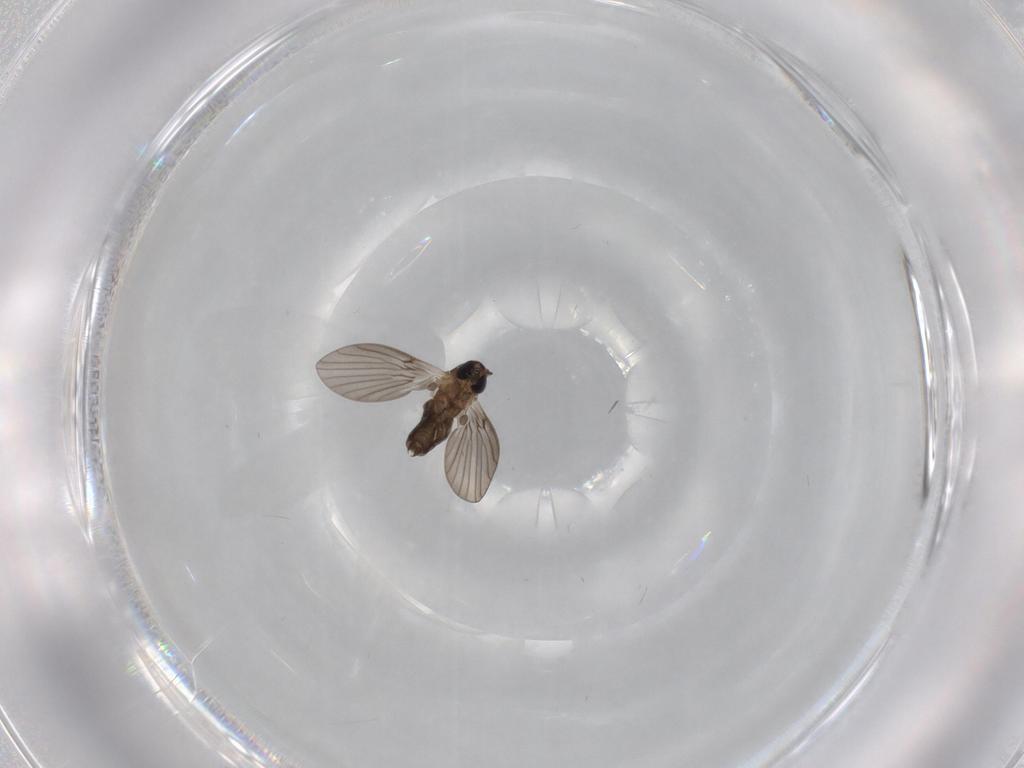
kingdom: Animalia
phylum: Arthropoda
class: Insecta
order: Diptera
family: Psychodidae
